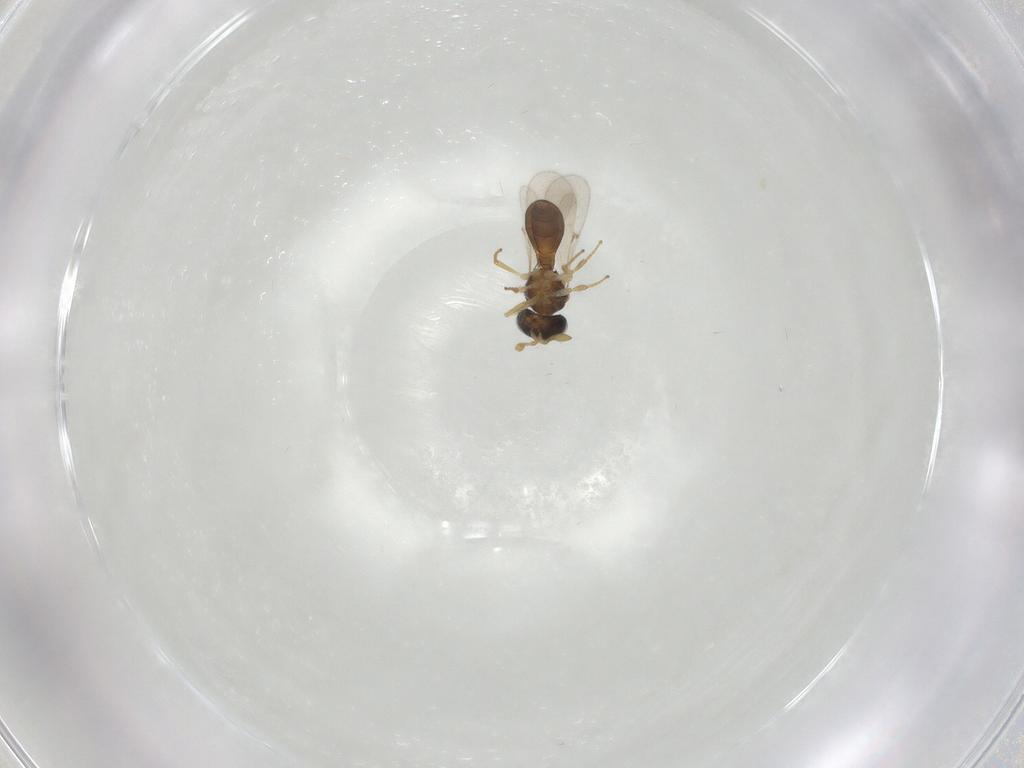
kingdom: Animalia
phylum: Arthropoda
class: Insecta
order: Hymenoptera
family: Scelionidae
